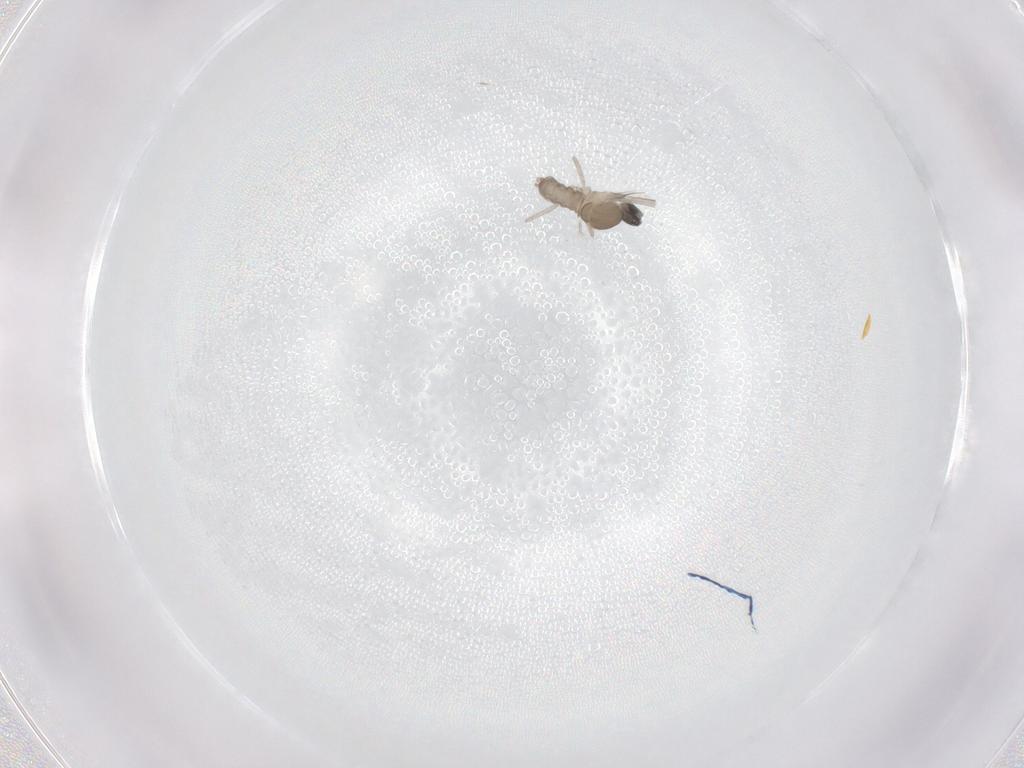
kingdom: Animalia
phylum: Arthropoda
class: Insecta
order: Diptera
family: Cecidomyiidae
